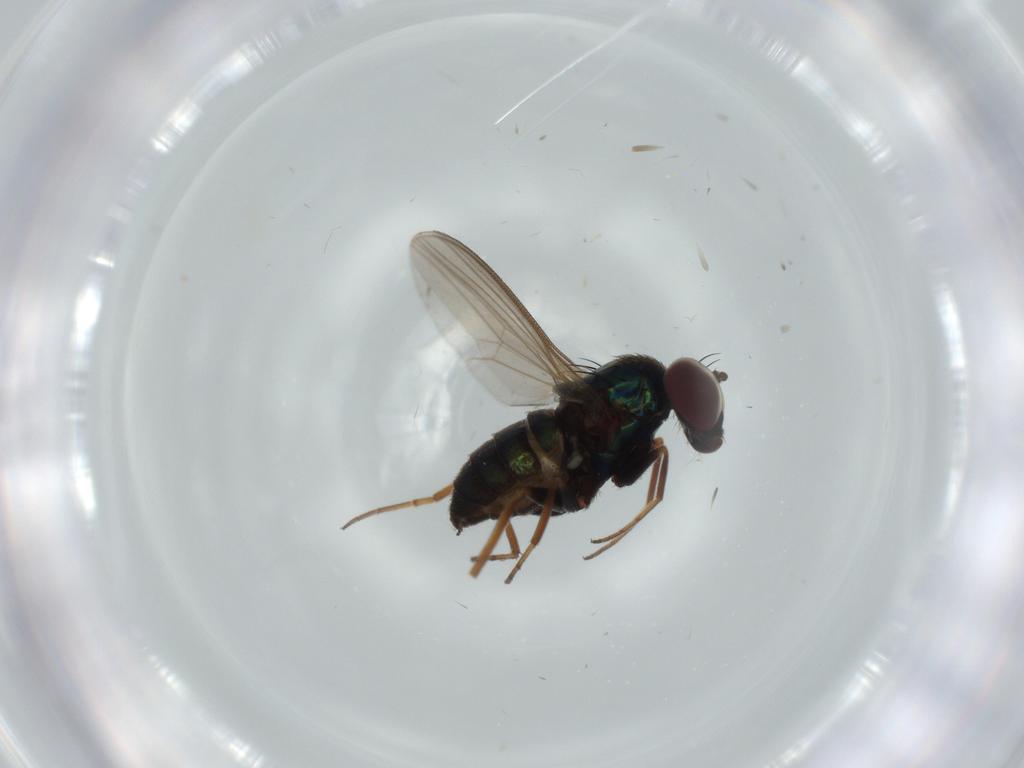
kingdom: Animalia
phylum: Arthropoda
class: Insecta
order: Diptera
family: Dolichopodidae
